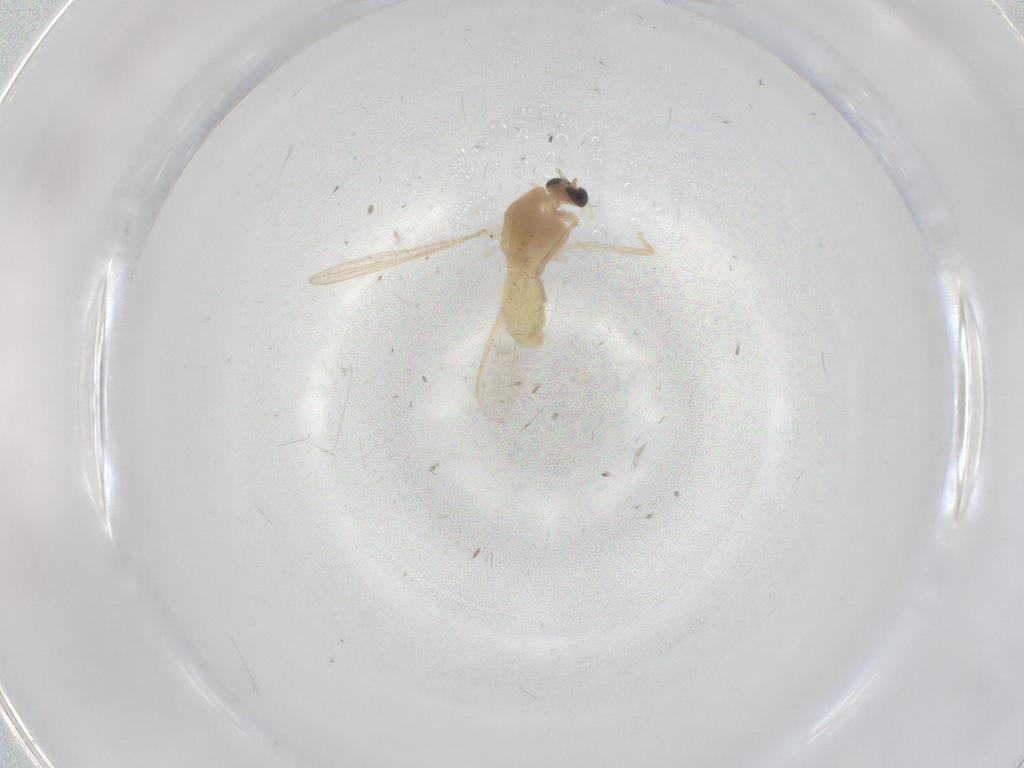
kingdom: Animalia
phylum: Arthropoda
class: Insecta
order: Diptera
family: Chironomidae
